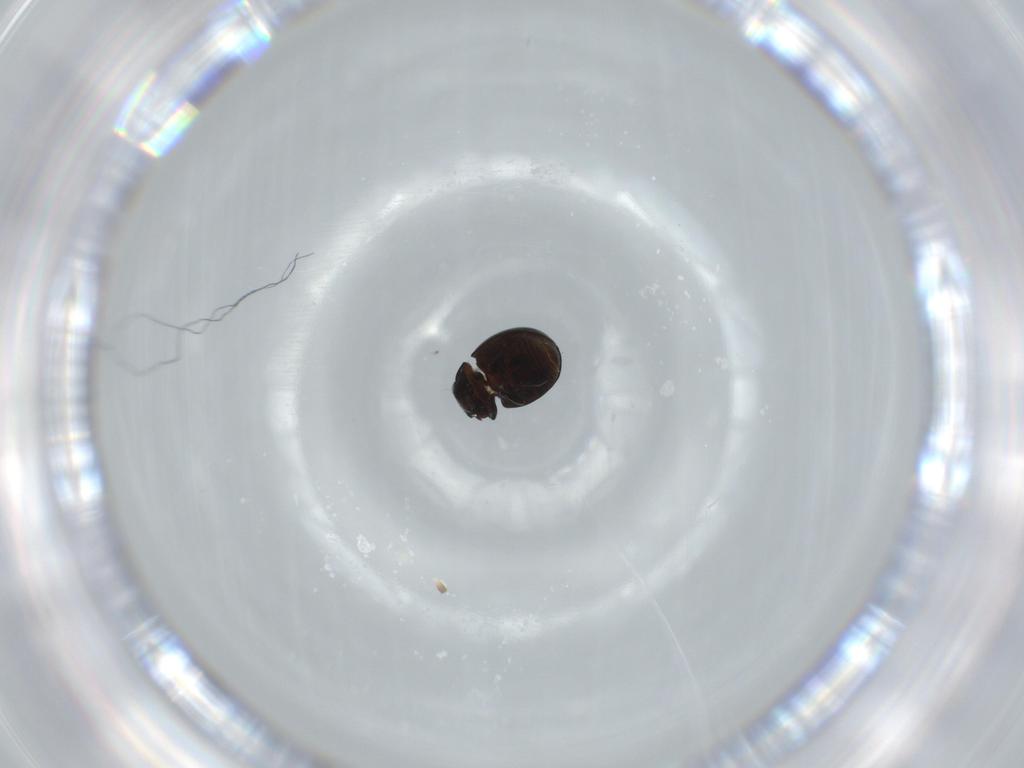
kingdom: Animalia
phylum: Arthropoda
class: Insecta
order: Coleoptera
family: Coccinellidae
